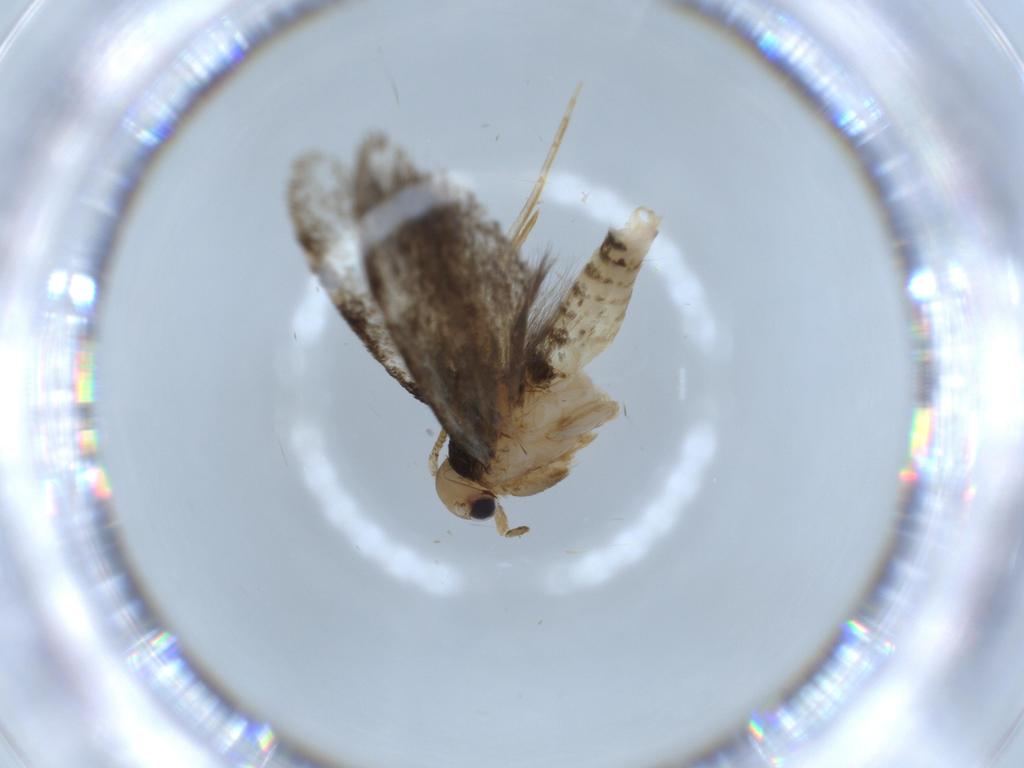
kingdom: Animalia
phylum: Arthropoda
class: Insecta
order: Lepidoptera
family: Tineidae
